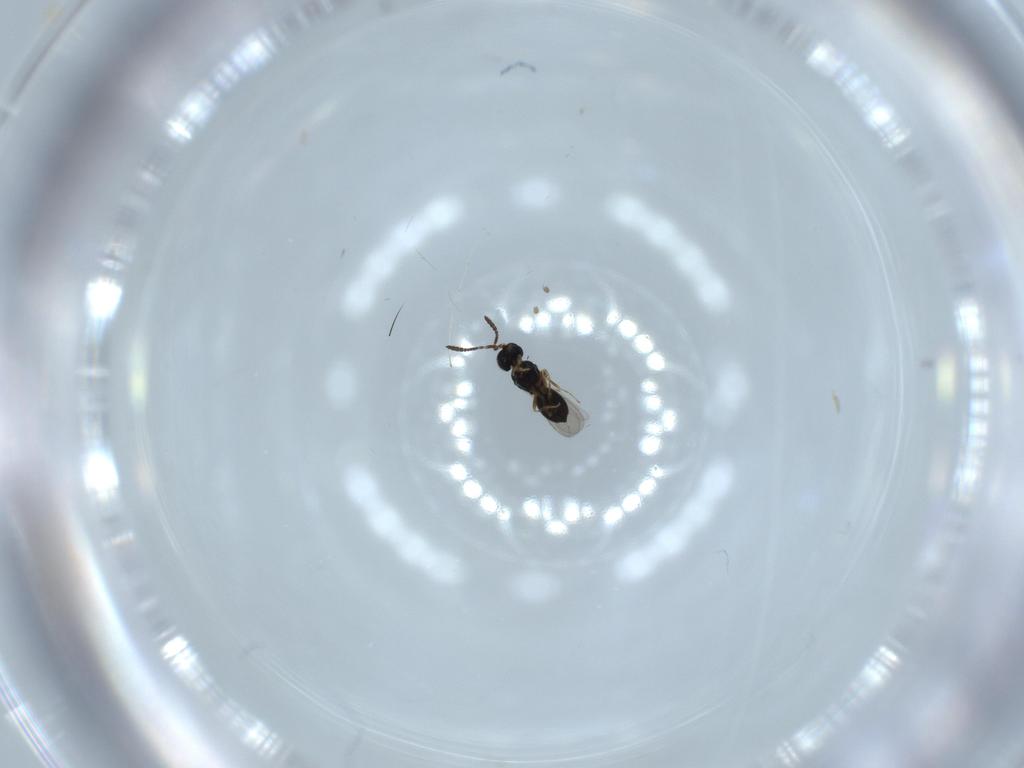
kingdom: Animalia
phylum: Arthropoda
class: Insecta
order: Hymenoptera
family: Scelionidae
